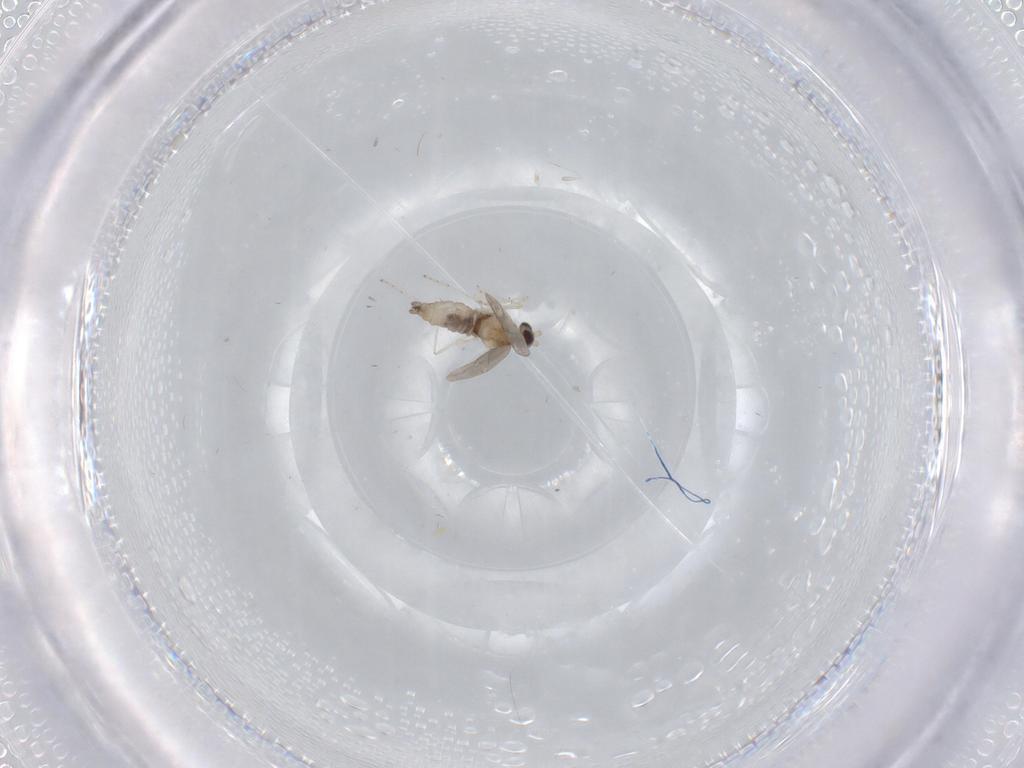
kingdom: Animalia
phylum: Arthropoda
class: Insecta
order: Diptera
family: Cecidomyiidae
